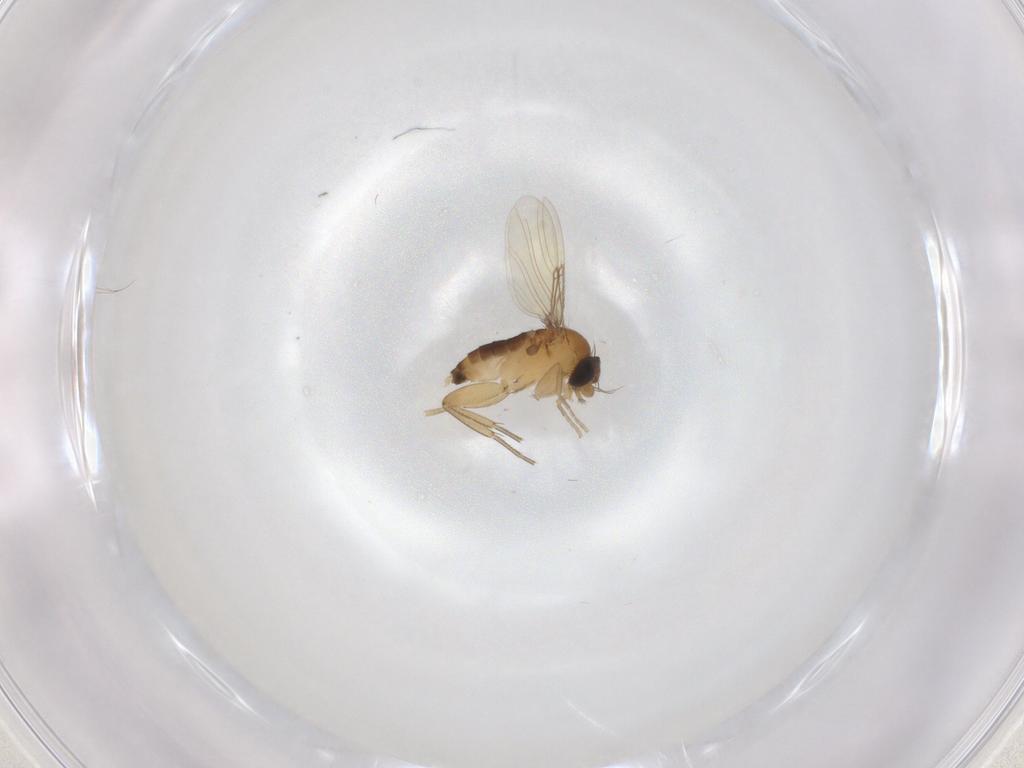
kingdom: Animalia
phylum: Arthropoda
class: Insecta
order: Diptera
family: Phoridae
